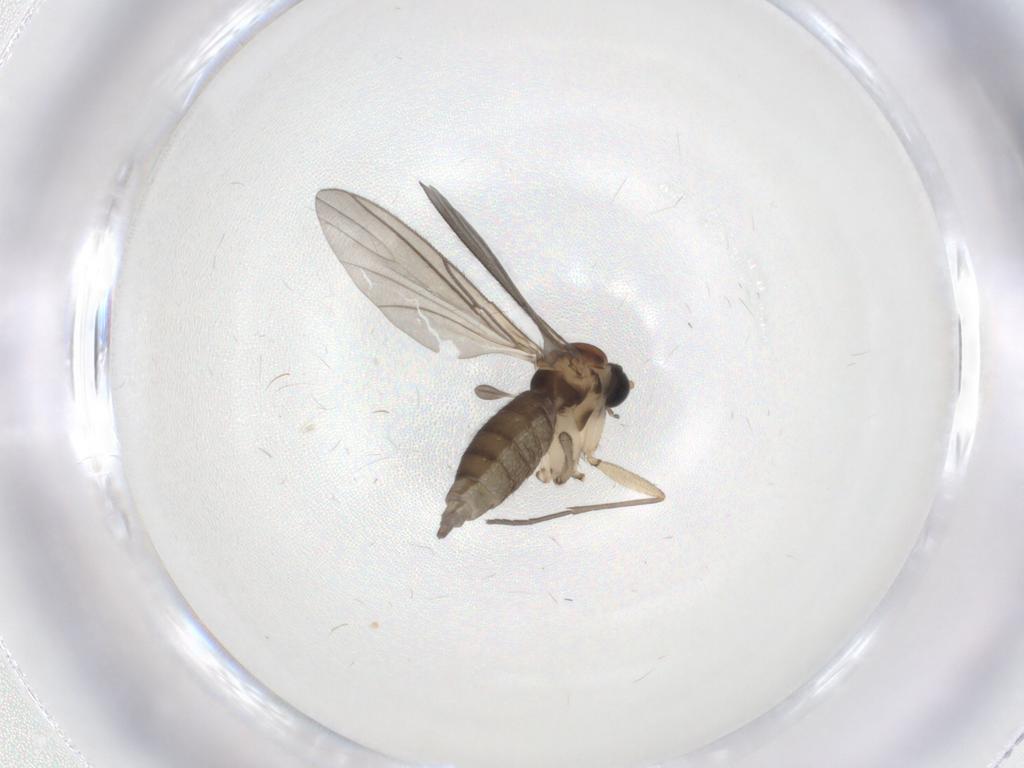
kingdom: Animalia
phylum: Arthropoda
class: Insecta
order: Diptera
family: Sciaridae
